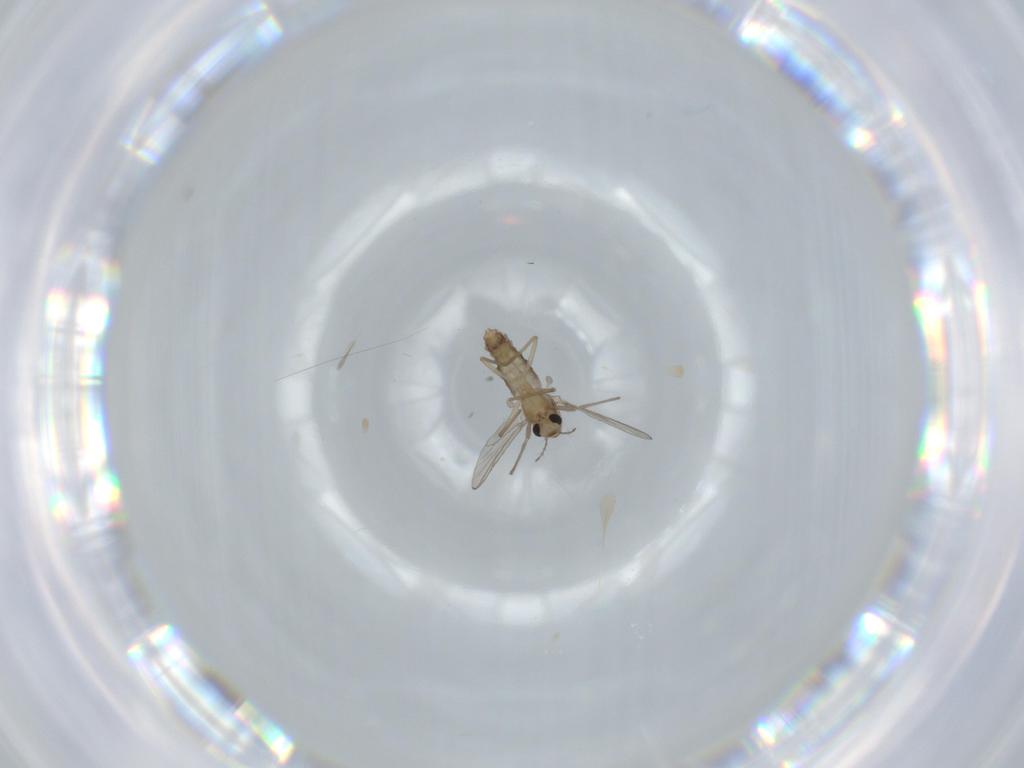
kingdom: Animalia
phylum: Arthropoda
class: Insecta
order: Diptera
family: Chironomidae
